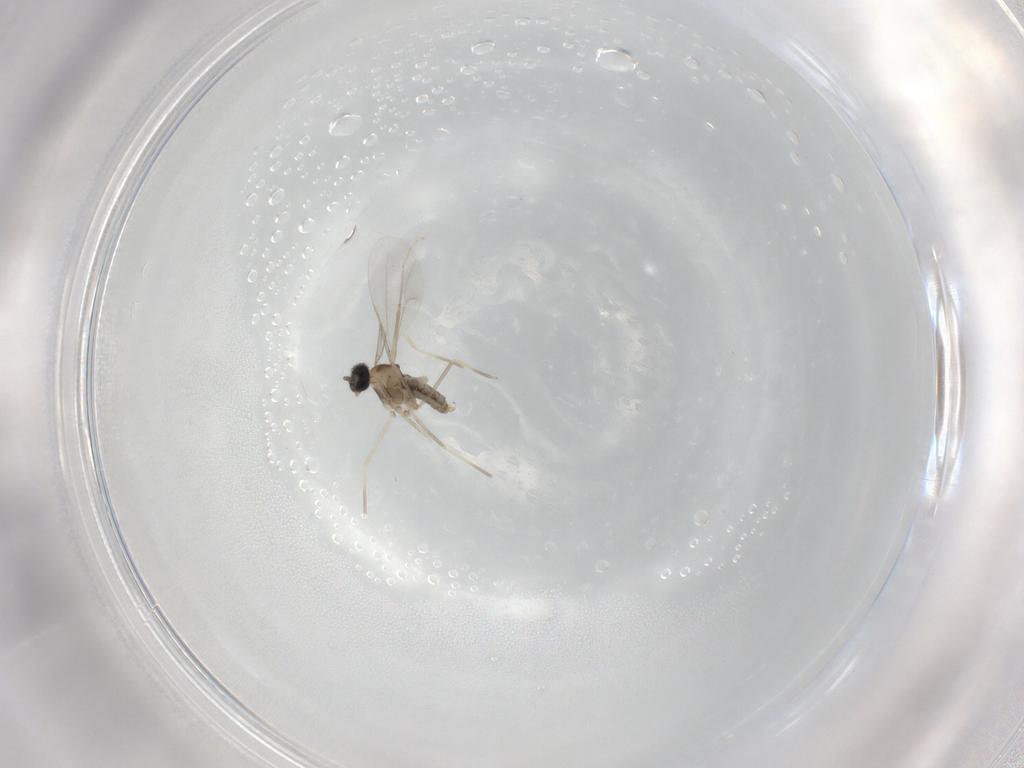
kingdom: Animalia
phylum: Arthropoda
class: Insecta
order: Diptera
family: Cecidomyiidae
